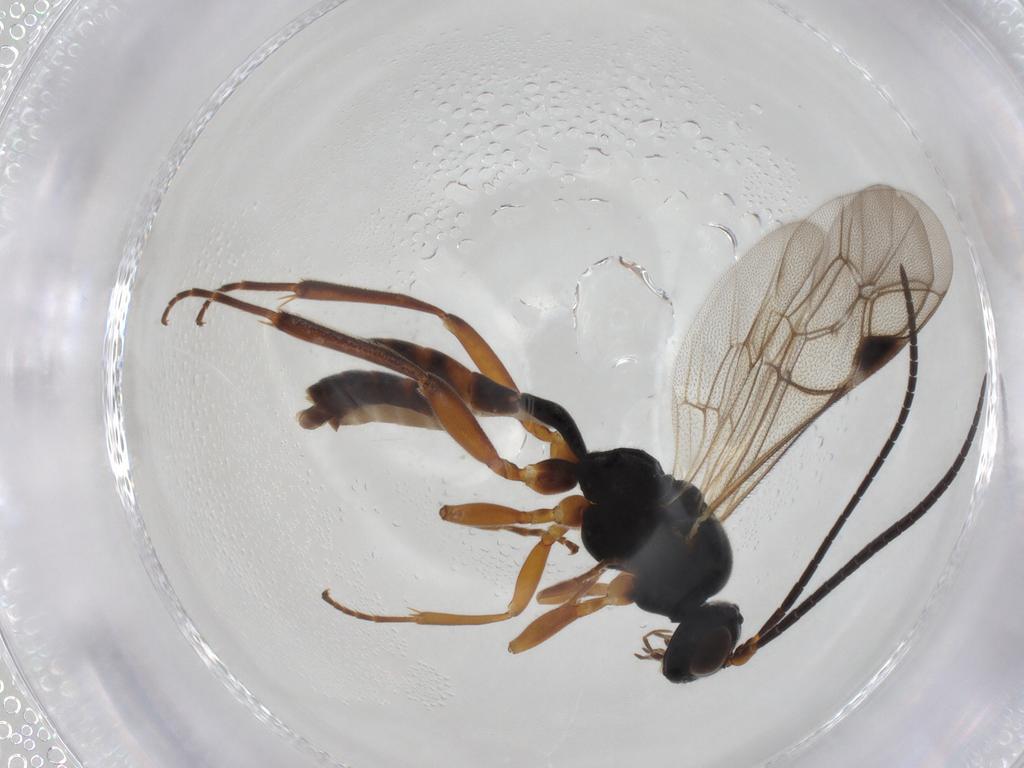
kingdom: Animalia
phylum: Arthropoda
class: Insecta
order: Hymenoptera
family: Ichneumonidae
